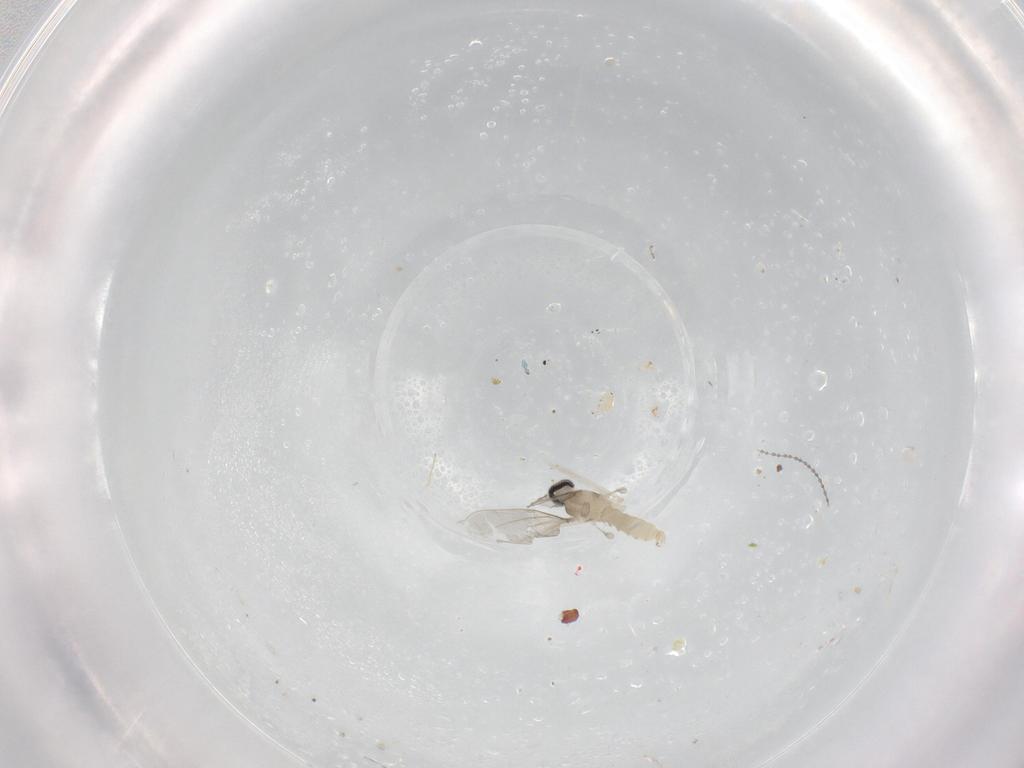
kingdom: Animalia
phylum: Arthropoda
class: Insecta
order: Diptera
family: Cecidomyiidae
